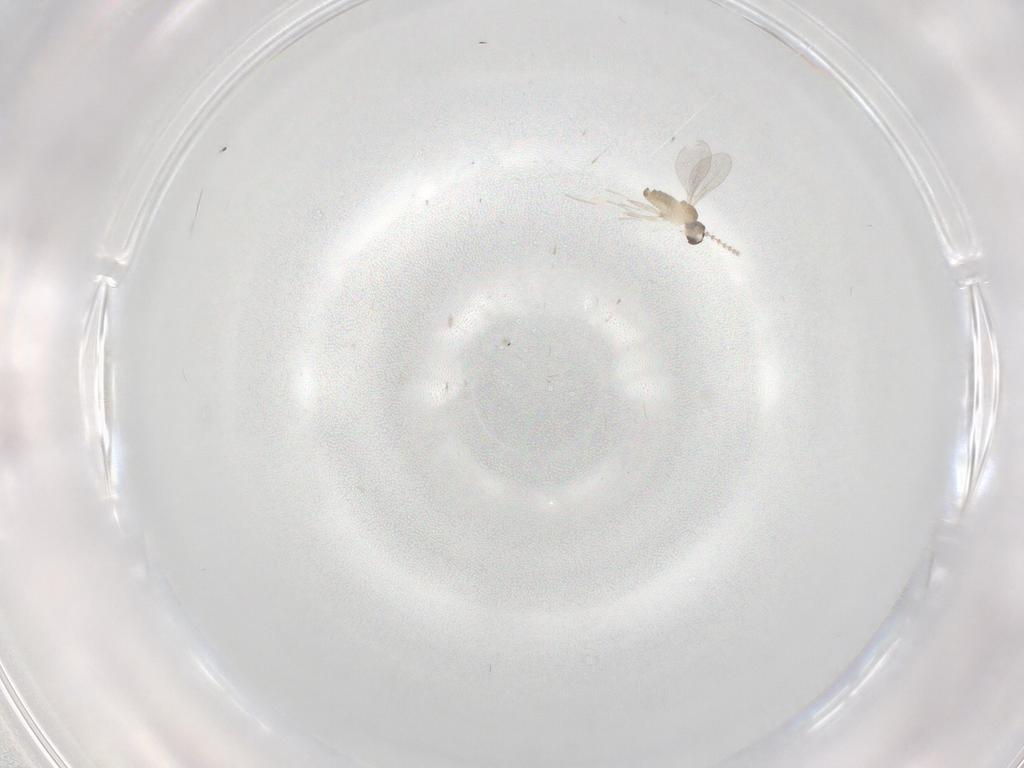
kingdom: Animalia
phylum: Arthropoda
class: Insecta
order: Diptera
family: Cecidomyiidae
